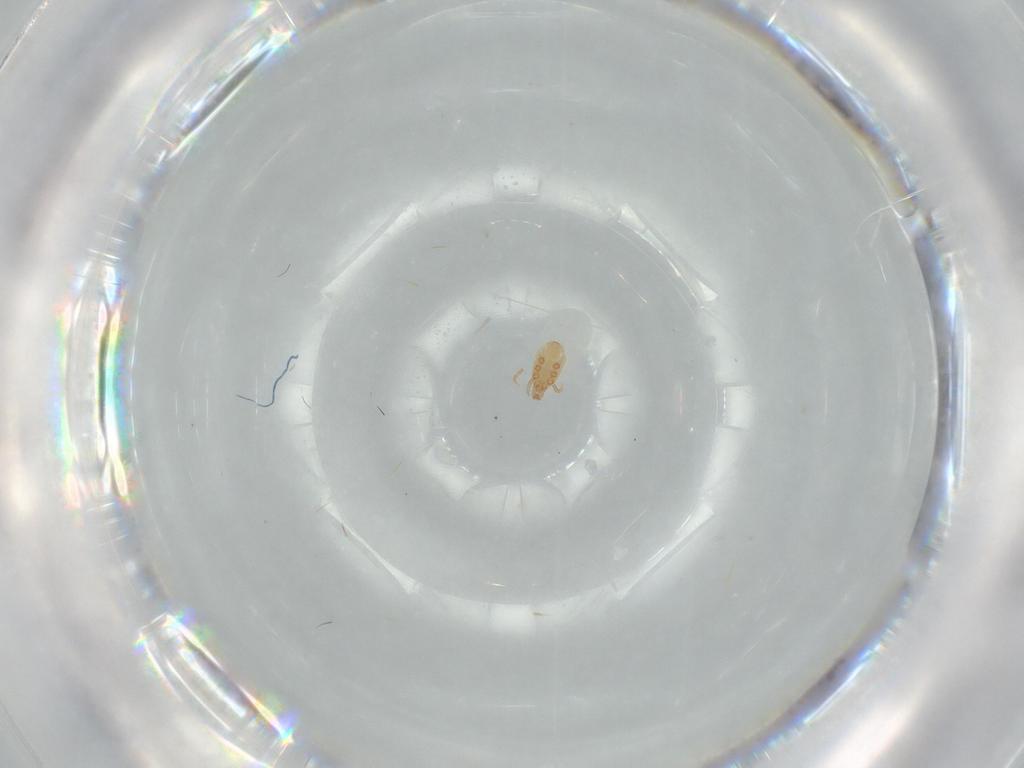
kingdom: Animalia
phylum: Arthropoda
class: Arachnida
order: Mesostigmata
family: Dinychidae
